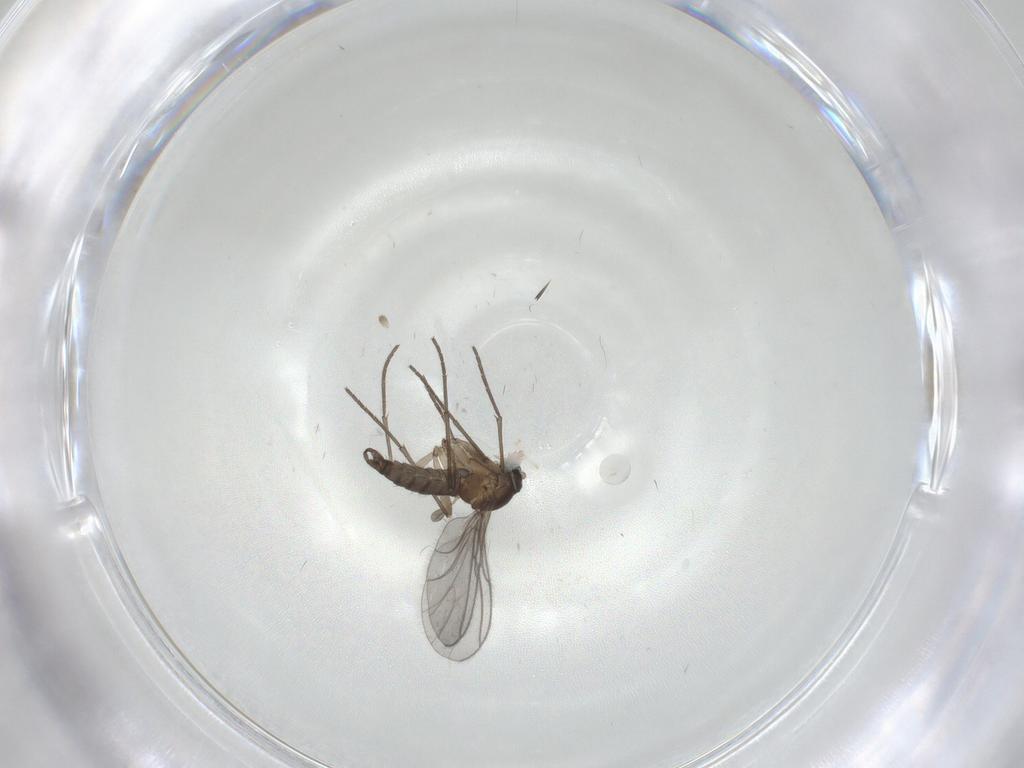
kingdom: Animalia
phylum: Arthropoda
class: Insecta
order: Diptera
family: Sciaridae
